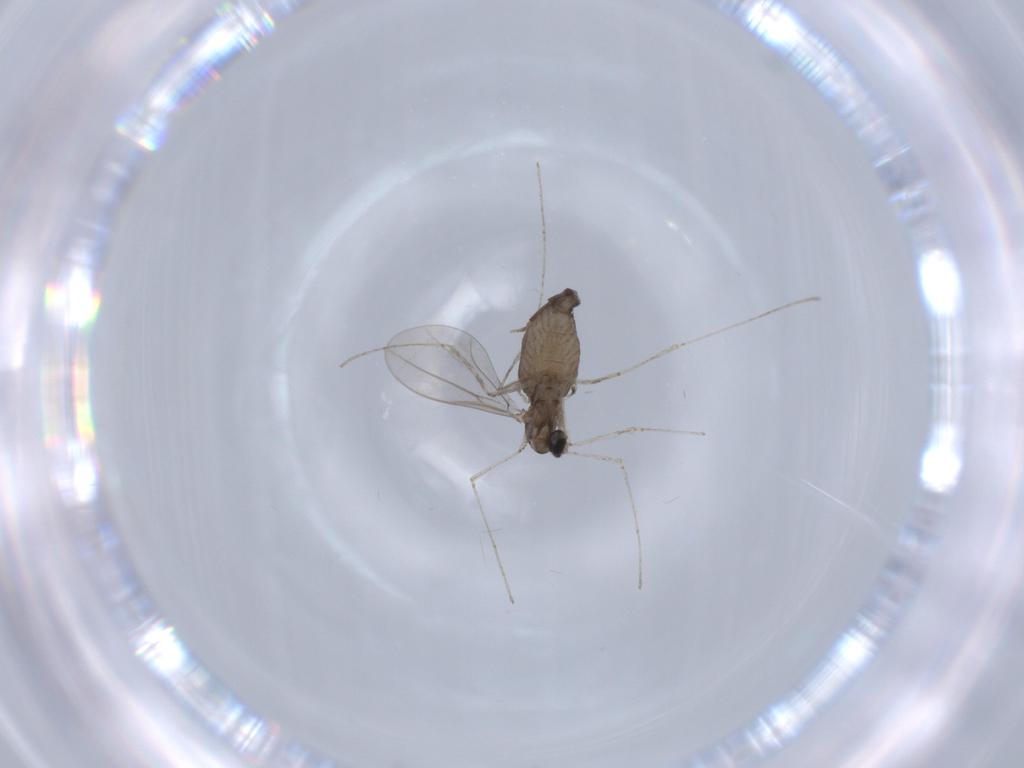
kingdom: Animalia
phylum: Arthropoda
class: Insecta
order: Diptera
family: Cecidomyiidae
